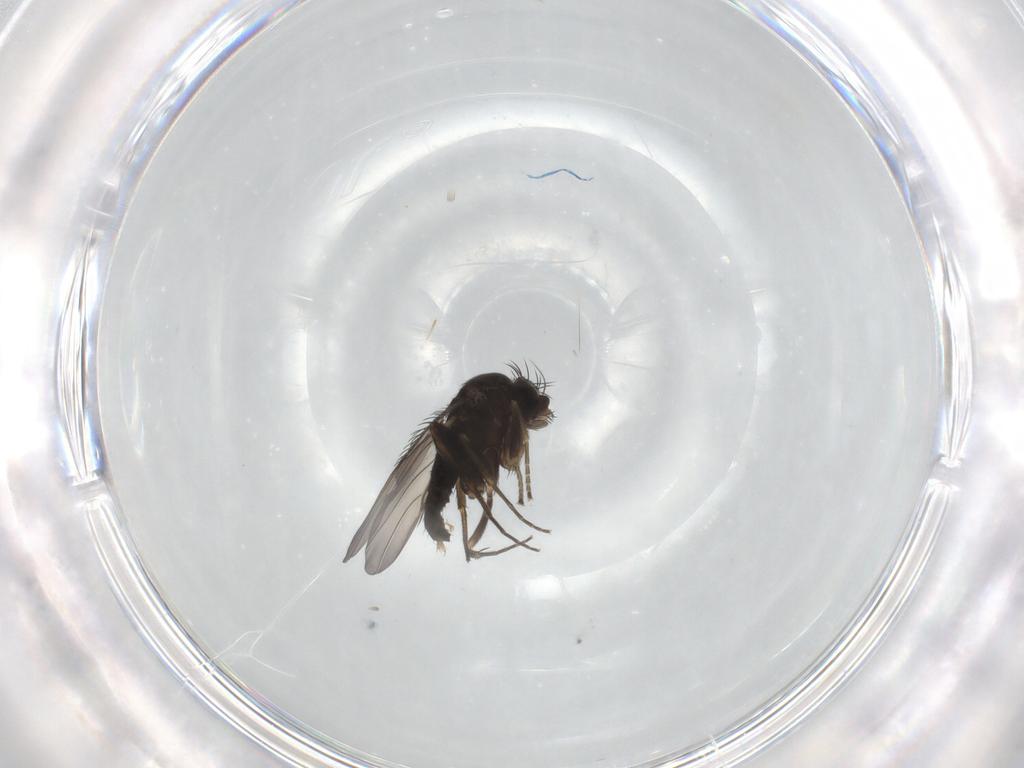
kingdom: Animalia
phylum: Arthropoda
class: Insecta
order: Diptera
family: Phoridae
